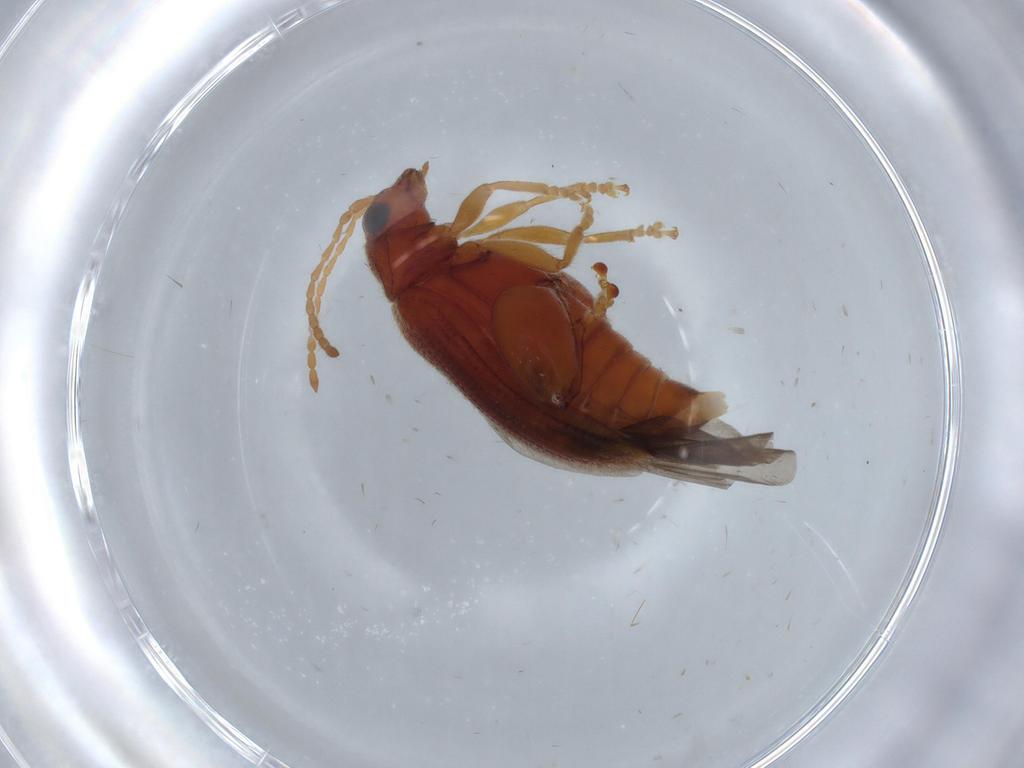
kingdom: Animalia
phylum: Arthropoda
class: Insecta
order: Coleoptera
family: Chrysomelidae
